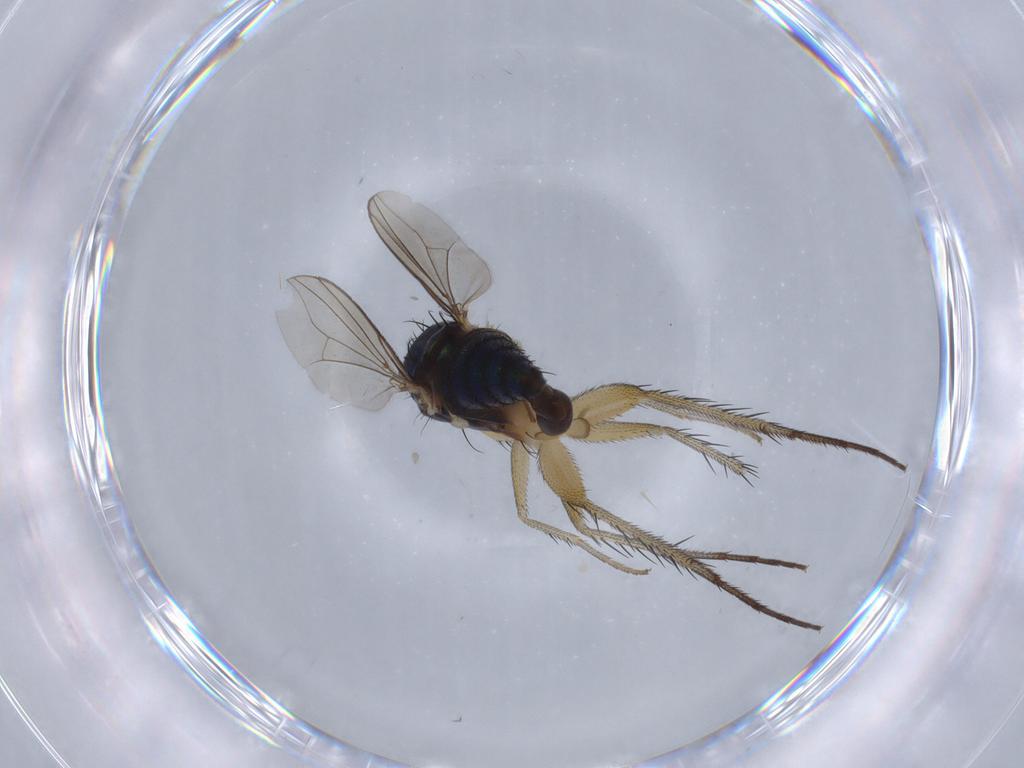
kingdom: Animalia
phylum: Arthropoda
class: Insecta
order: Diptera
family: Dolichopodidae
